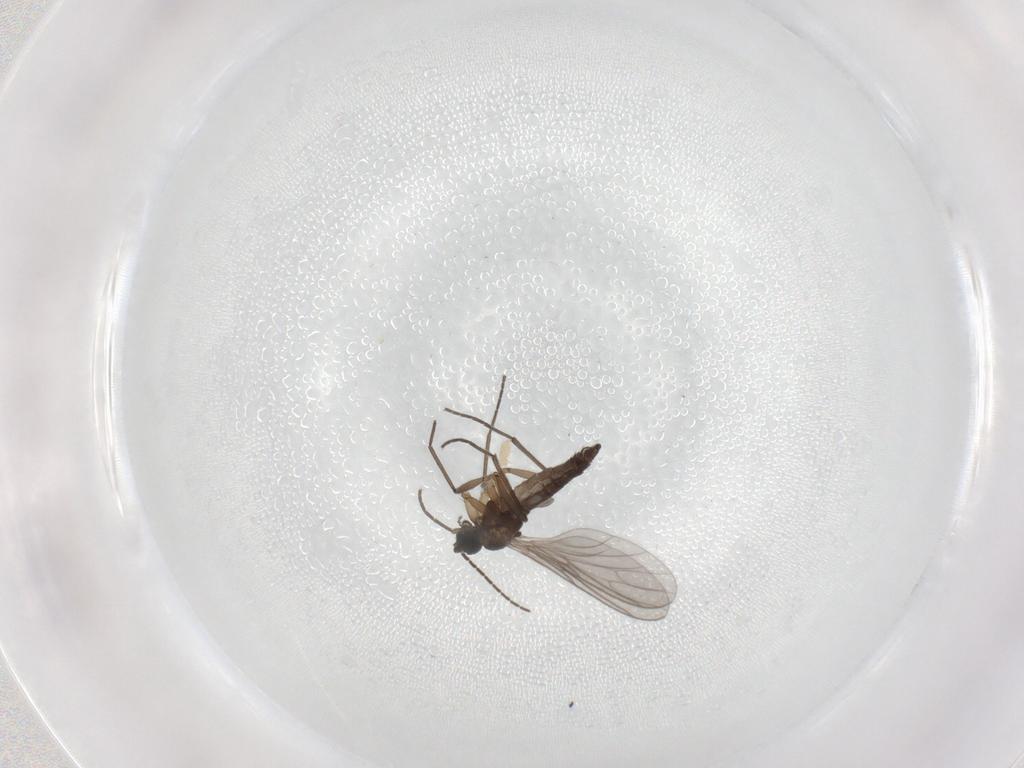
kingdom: Animalia
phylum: Arthropoda
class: Insecta
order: Diptera
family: Sciaridae
